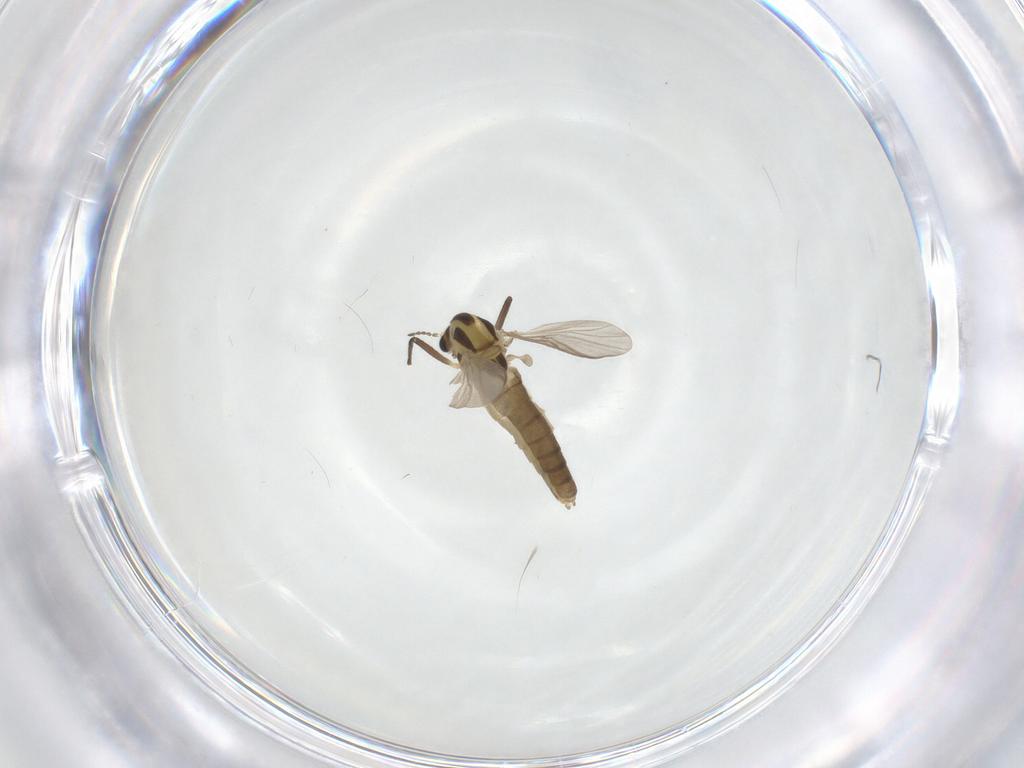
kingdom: Animalia
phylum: Arthropoda
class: Insecta
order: Diptera
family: Chironomidae
